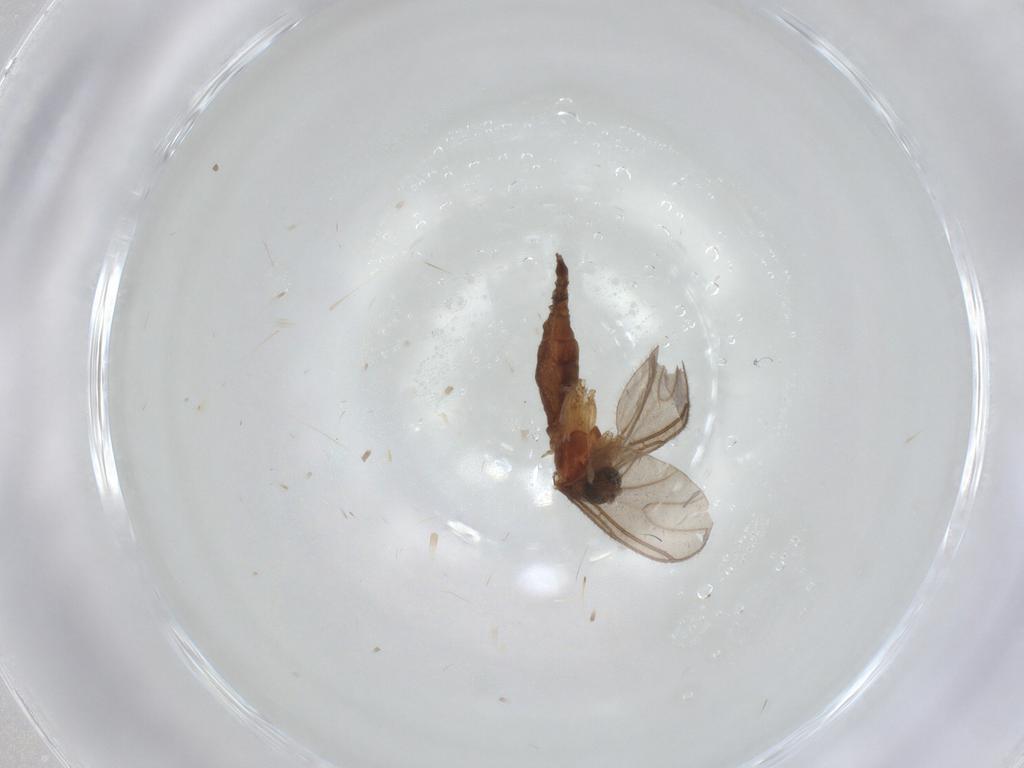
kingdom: Animalia
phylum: Arthropoda
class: Insecta
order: Diptera
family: Sciaridae
